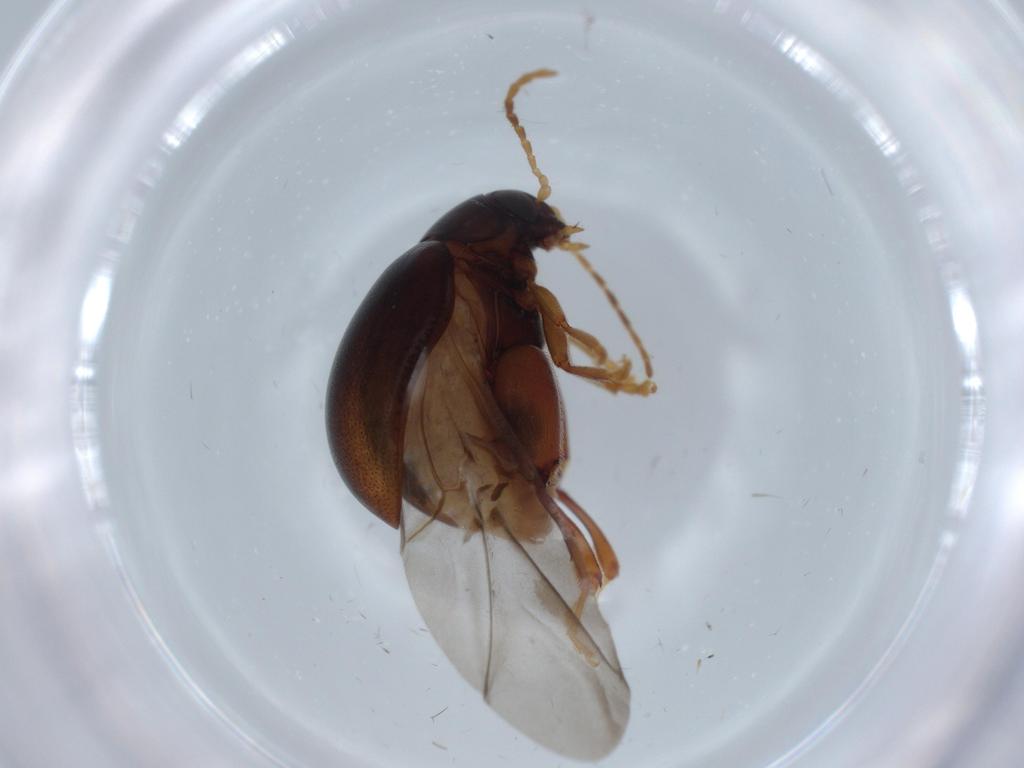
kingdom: Animalia
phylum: Arthropoda
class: Insecta
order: Coleoptera
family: Chrysomelidae
